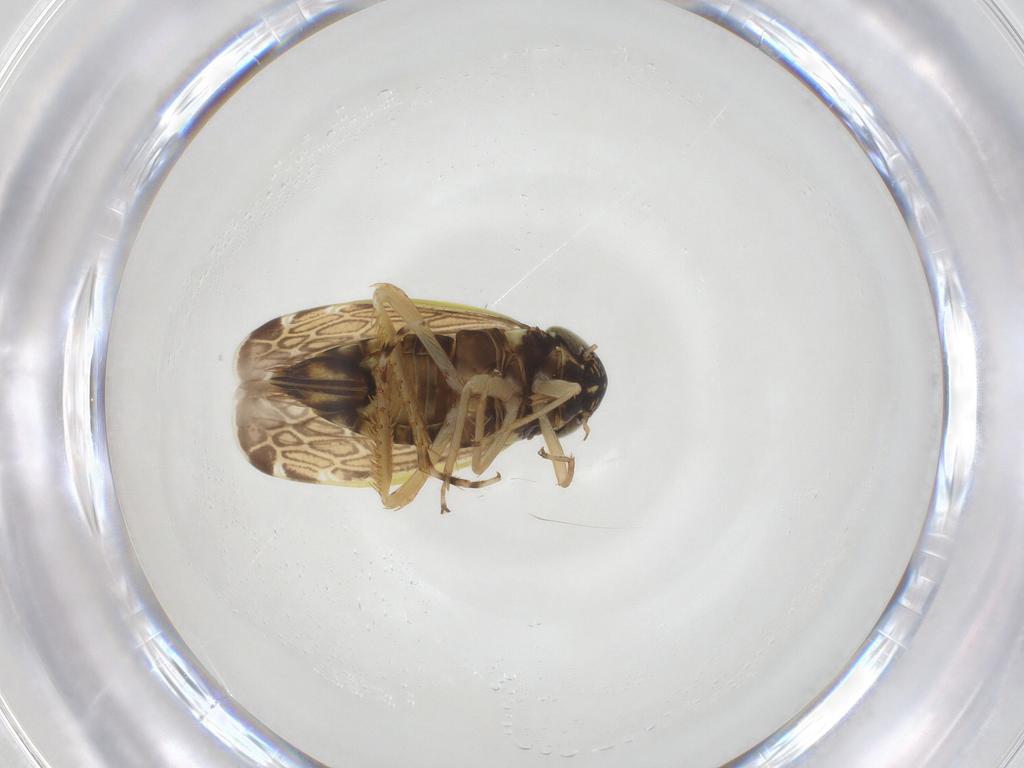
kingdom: Animalia
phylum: Arthropoda
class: Insecta
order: Hemiptera
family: Cicadellidae
